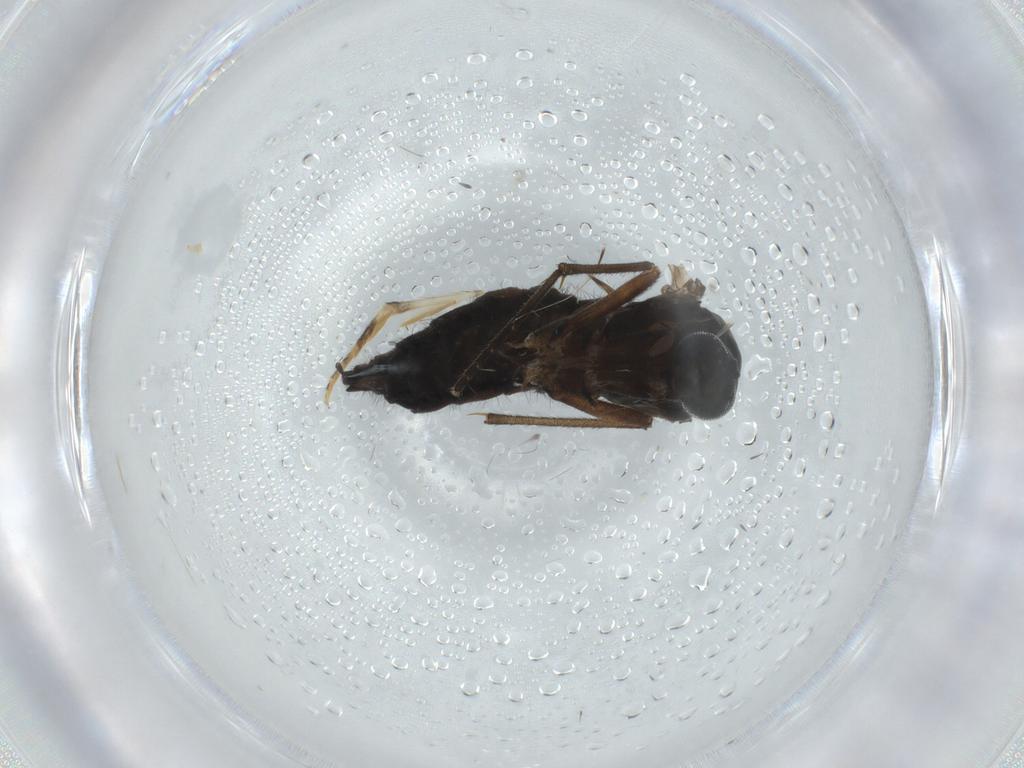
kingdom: Animalia
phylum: Arthropoda
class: Insecta
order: Diptera
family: Sciaridae
